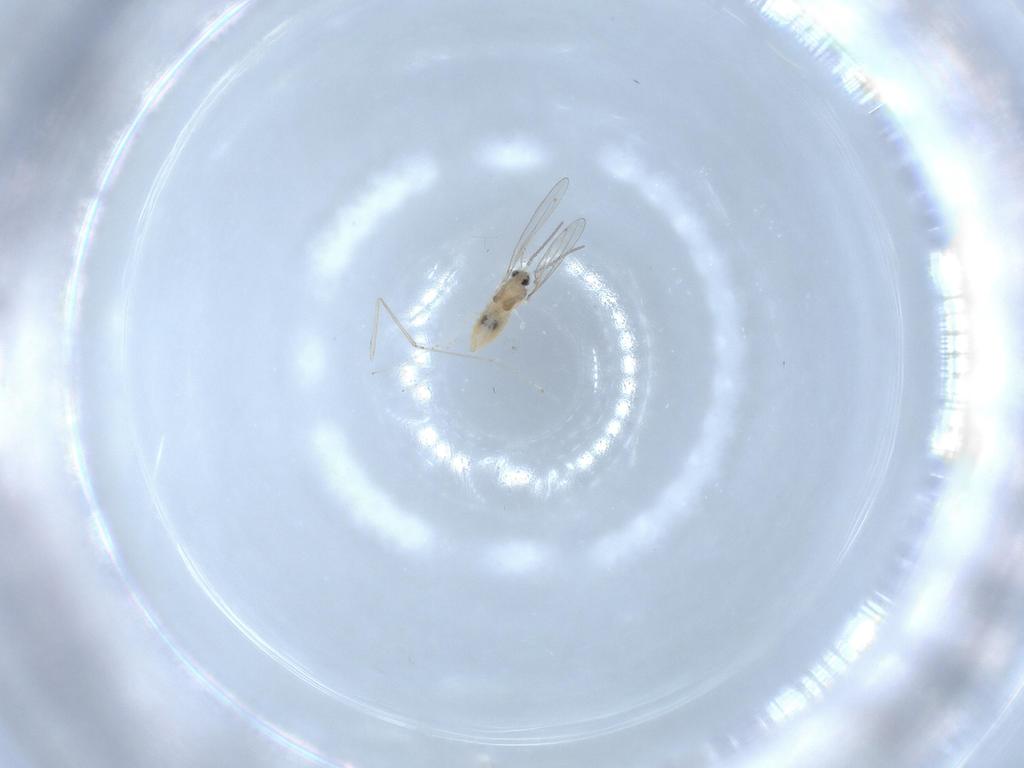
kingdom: Animalia
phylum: Arthropoda
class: Insecta
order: Diptera
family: Cecidomyiidae
